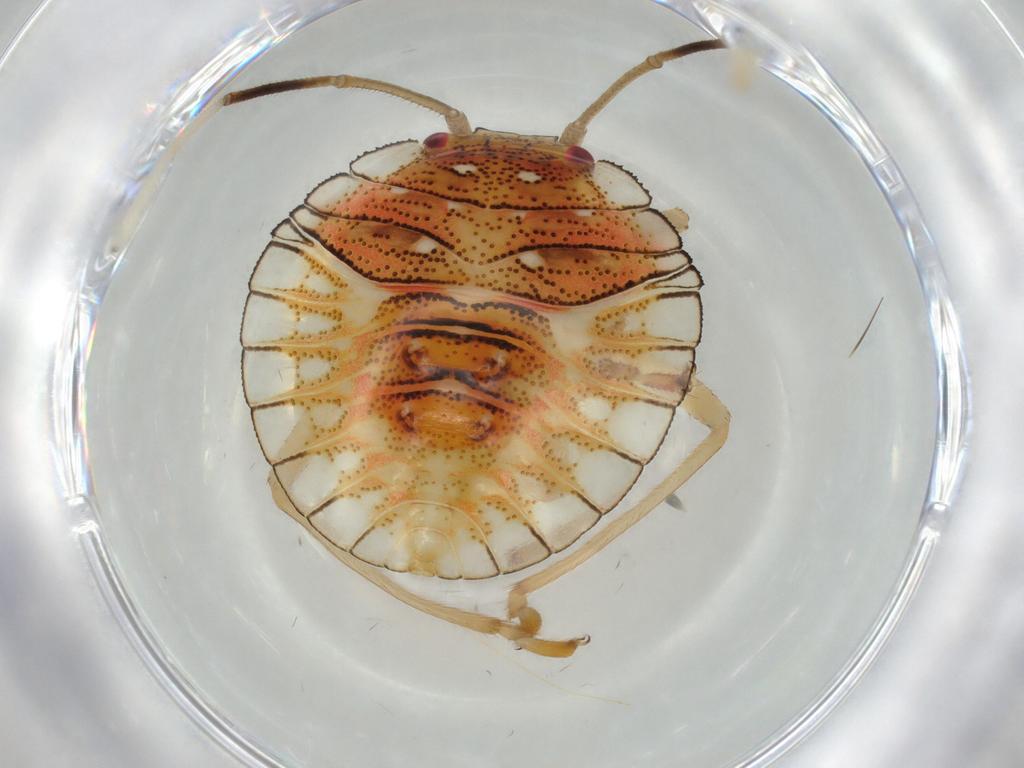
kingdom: Animalia
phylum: Arthropoda
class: Insecta
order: Hemiptera
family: Pentatomidae
